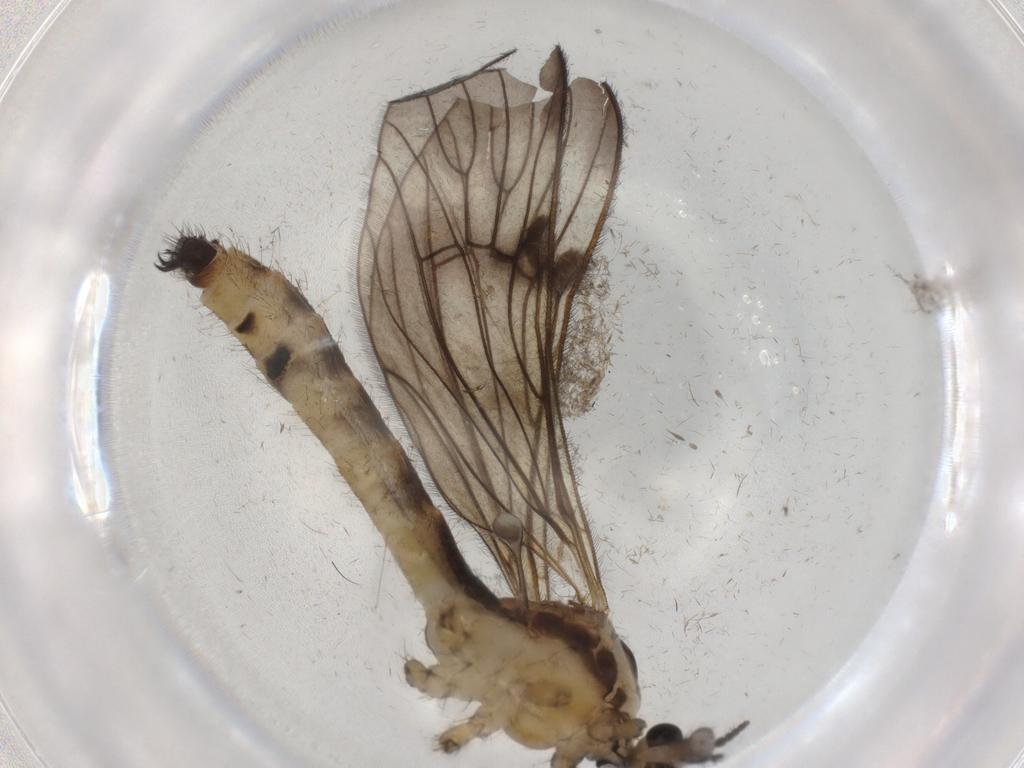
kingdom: Animalia
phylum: Arthropoda
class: Insecta
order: Diptera
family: Limoniidae
